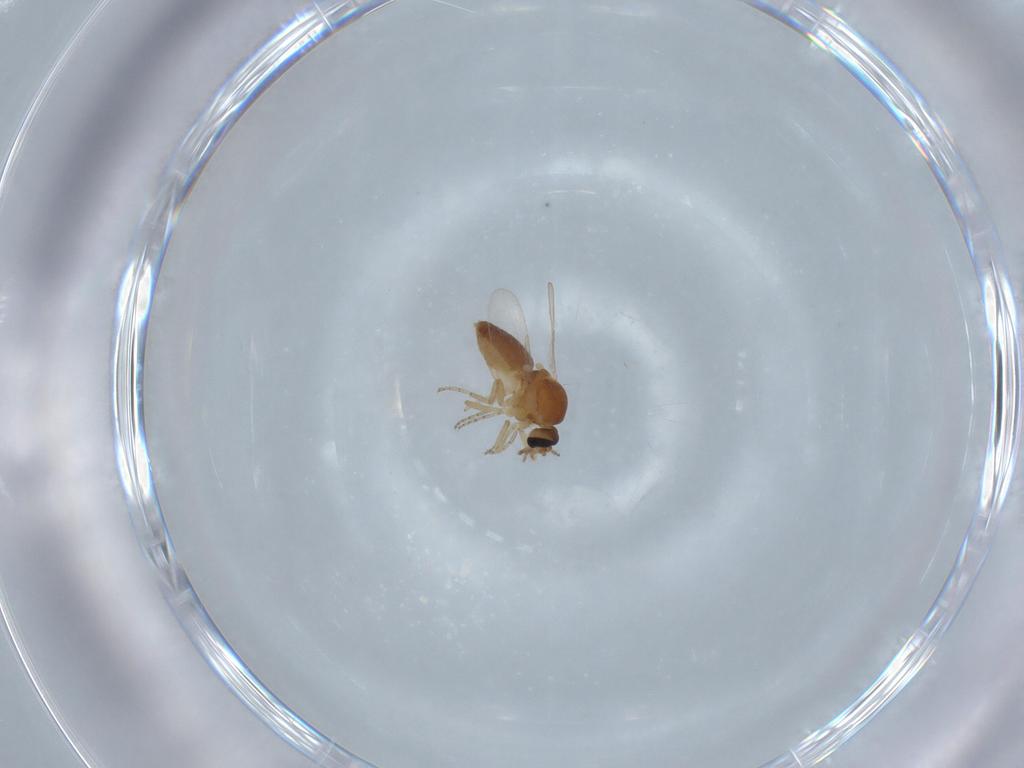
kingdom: Animalia
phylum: Arthropoda
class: Insecta
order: Diptera
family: Ceratopogonidae
